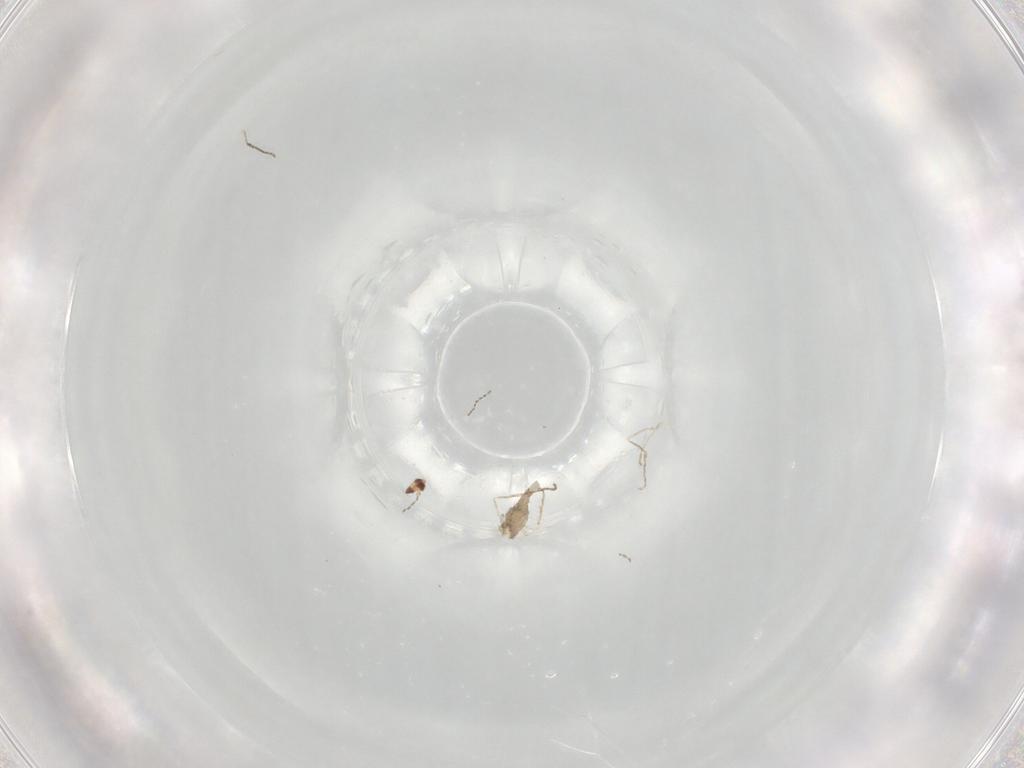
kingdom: Animalia
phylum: Arthropoda
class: Insecta
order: Diptera
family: Cecidomyiidae
